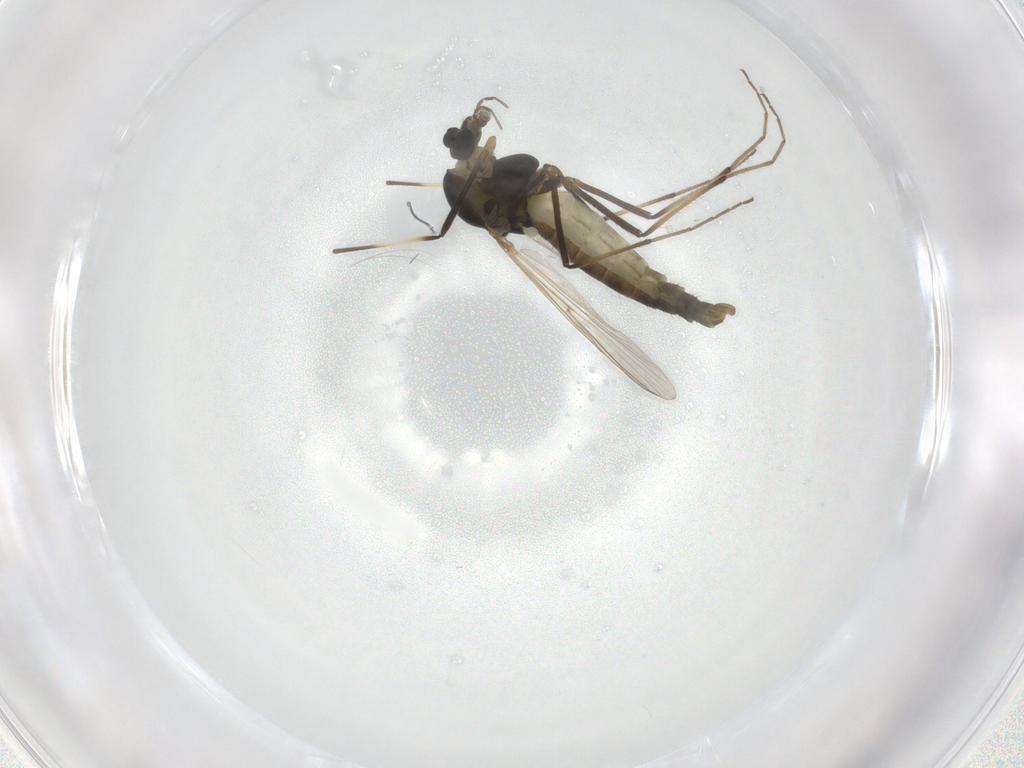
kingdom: Animalia
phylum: Arthropoda
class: Insecta
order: Diptera
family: Chironomidae
